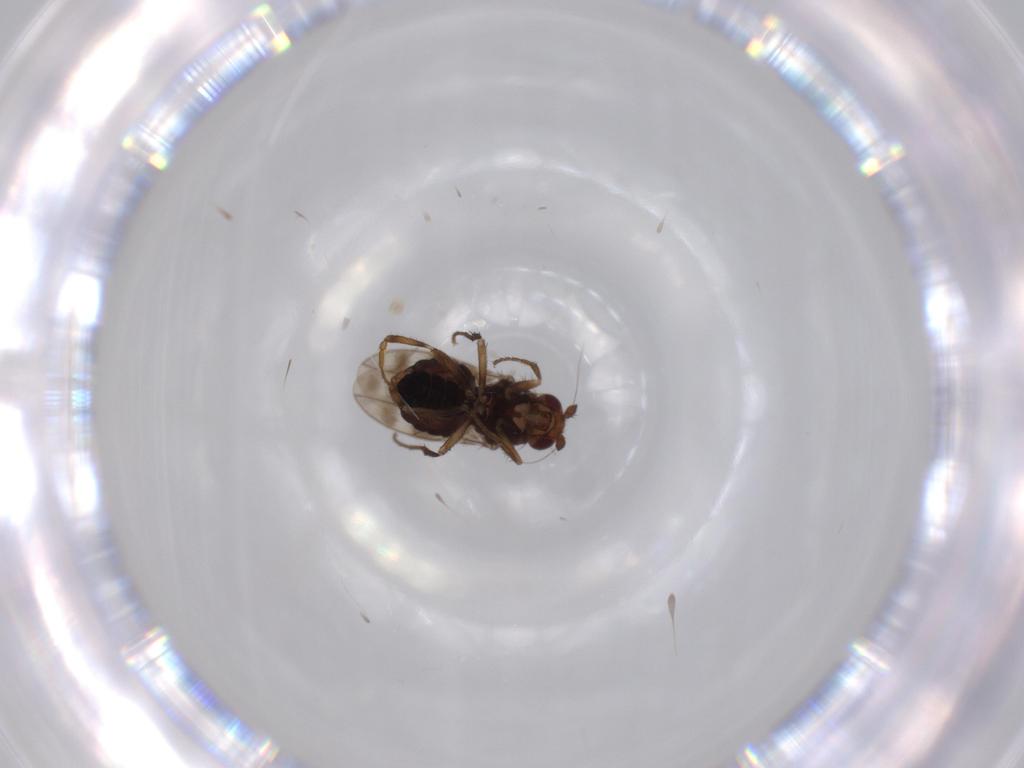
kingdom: Animalia
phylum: Arthropoda
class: Insecta
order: Diptera
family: Sphaeroceridae
